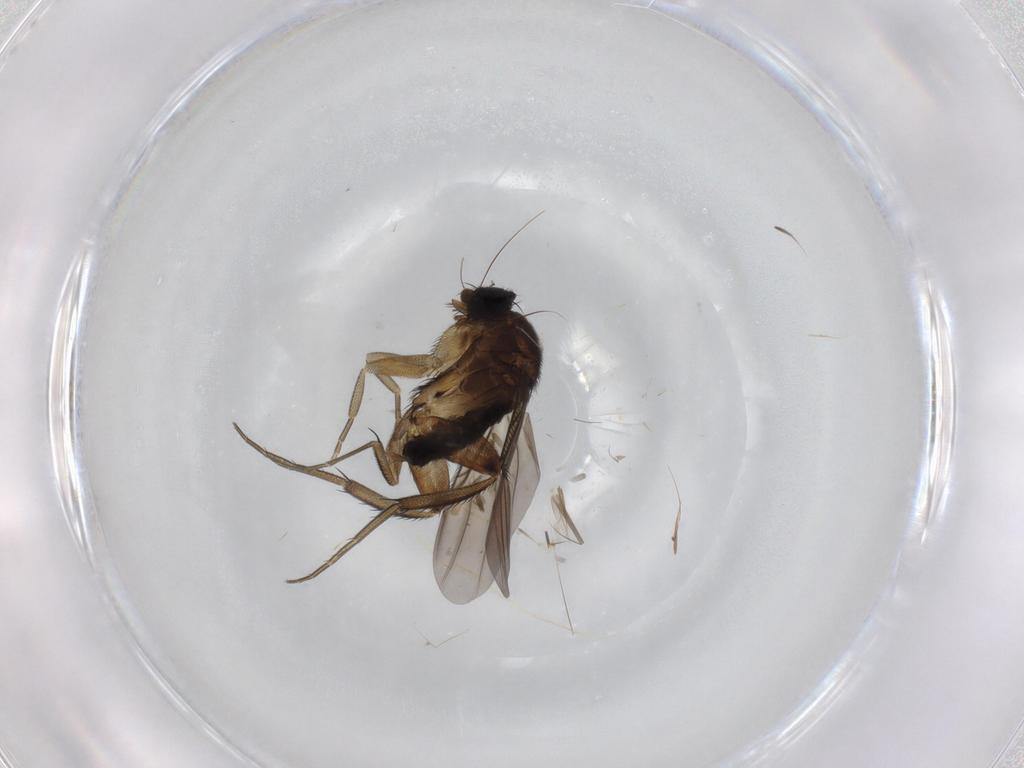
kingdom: Animalia
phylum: Arthropoda
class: Insecta
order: Diptera
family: Phoridae
